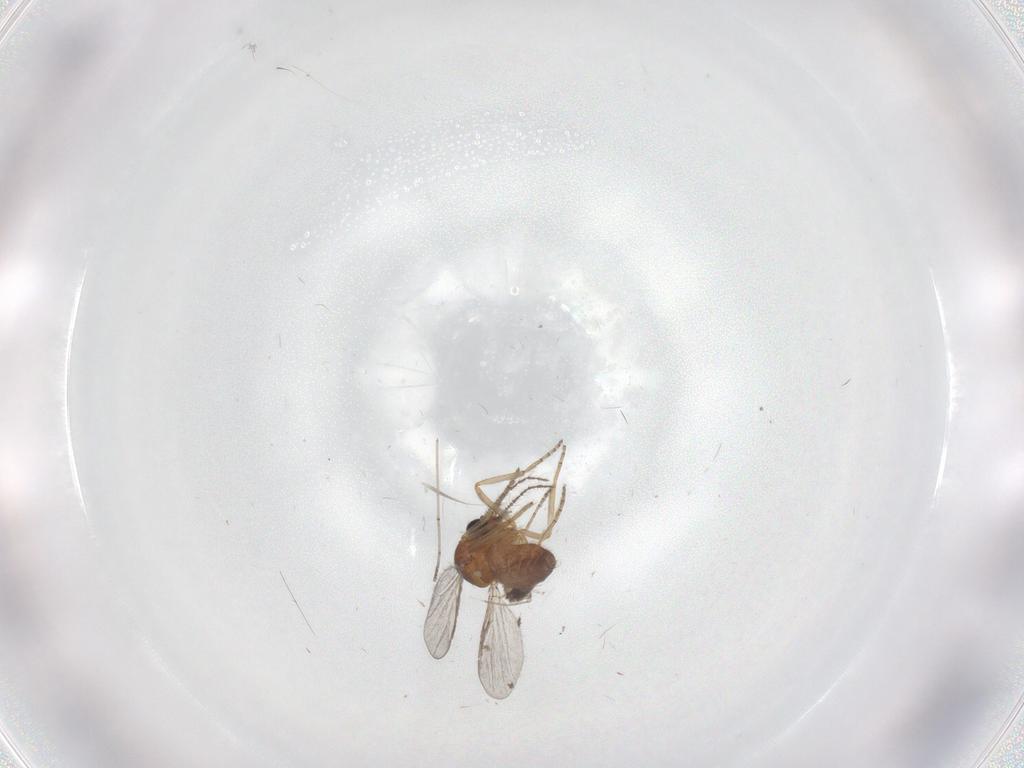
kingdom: Animalia
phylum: Arthropoda
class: Insecta
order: Diptera
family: Ceratopogonidae
